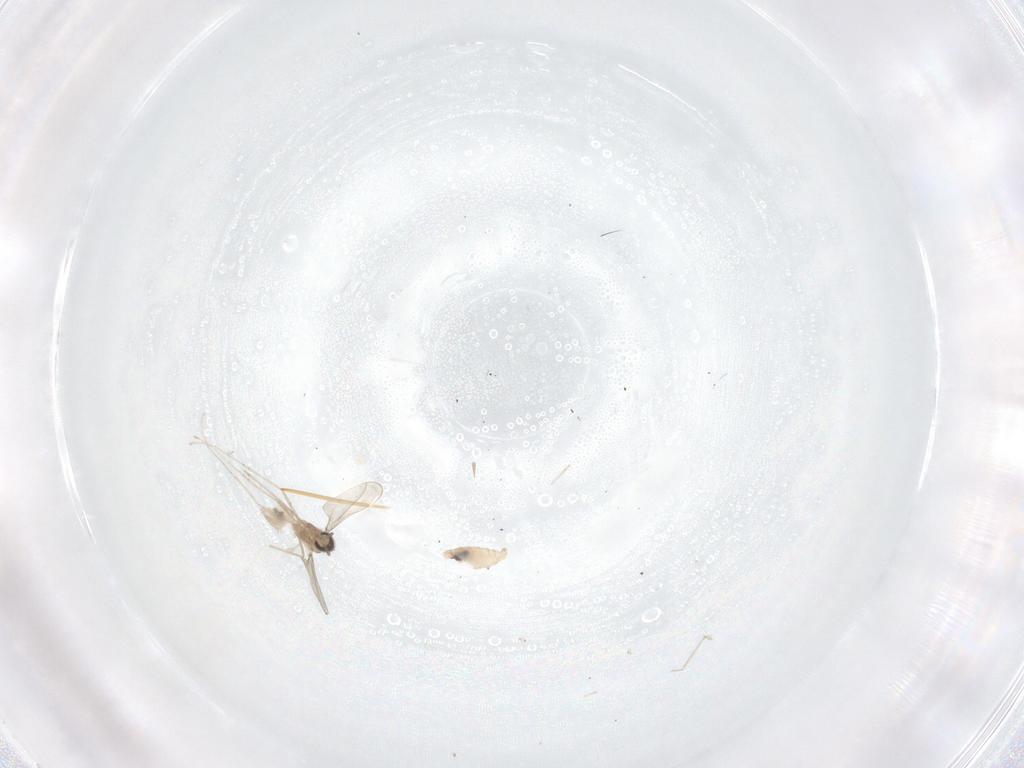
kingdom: Animalia
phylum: Arthropoda
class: Insecta
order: Diptera
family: Cecidomyiidae
